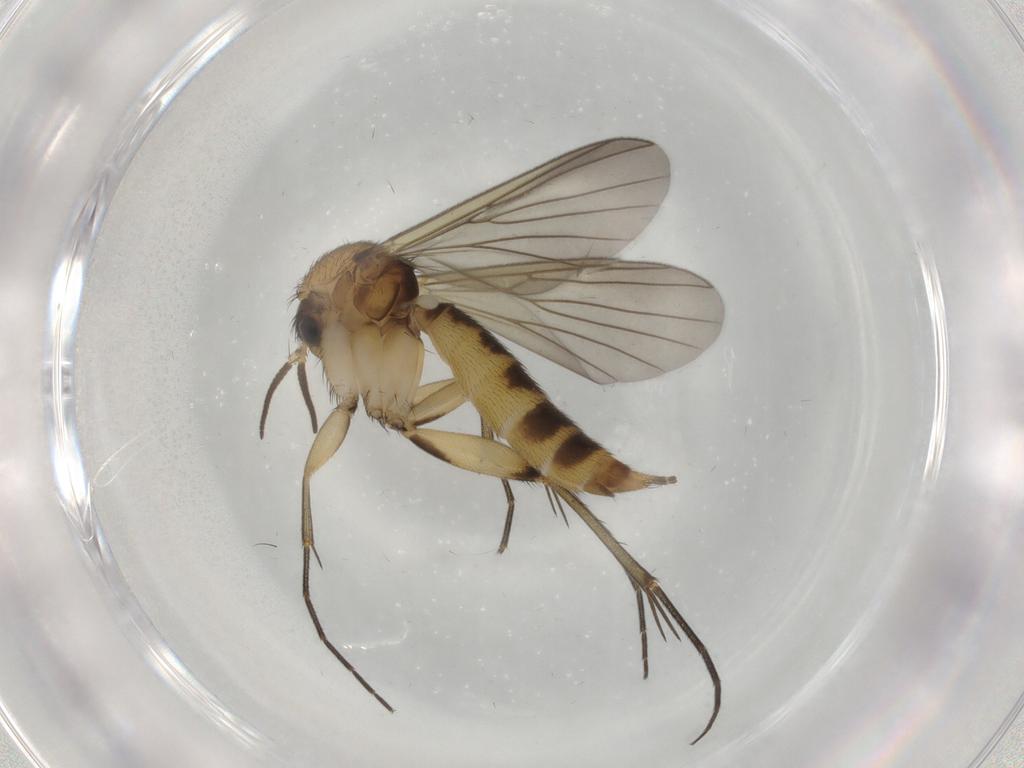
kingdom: Animalia
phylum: Arthropoda
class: Insecta
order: Diptera
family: Mycetophilidae
